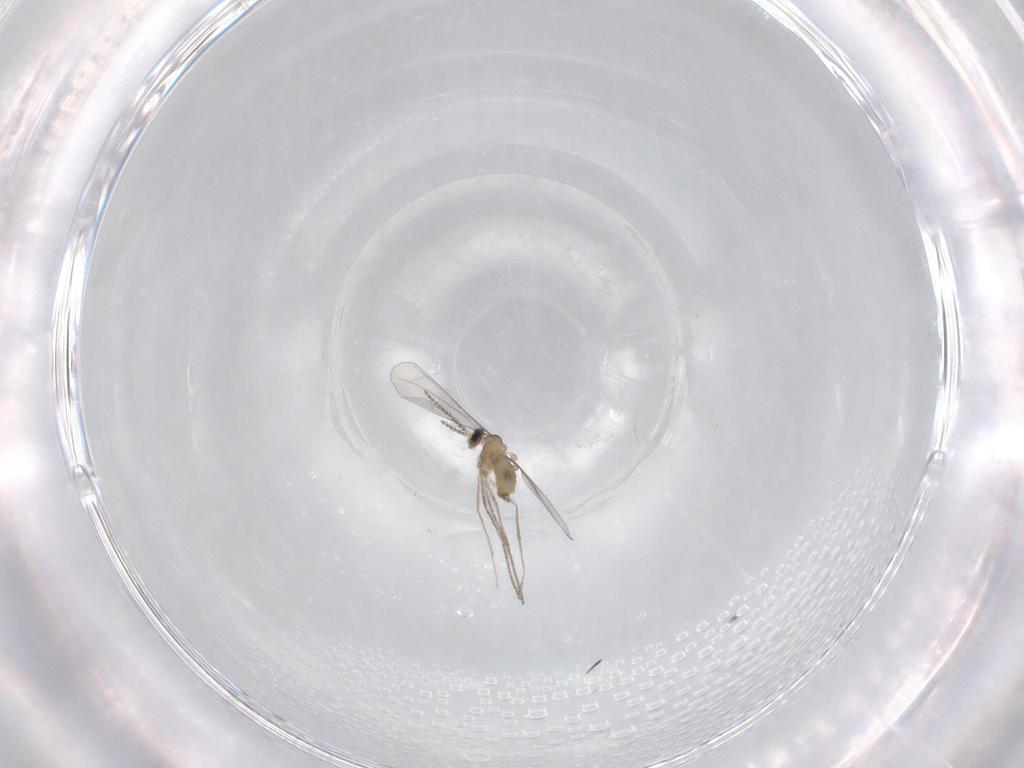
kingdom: Animalia
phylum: Arthropoda
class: Insecta
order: Diptera
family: Cecidomyiidae
